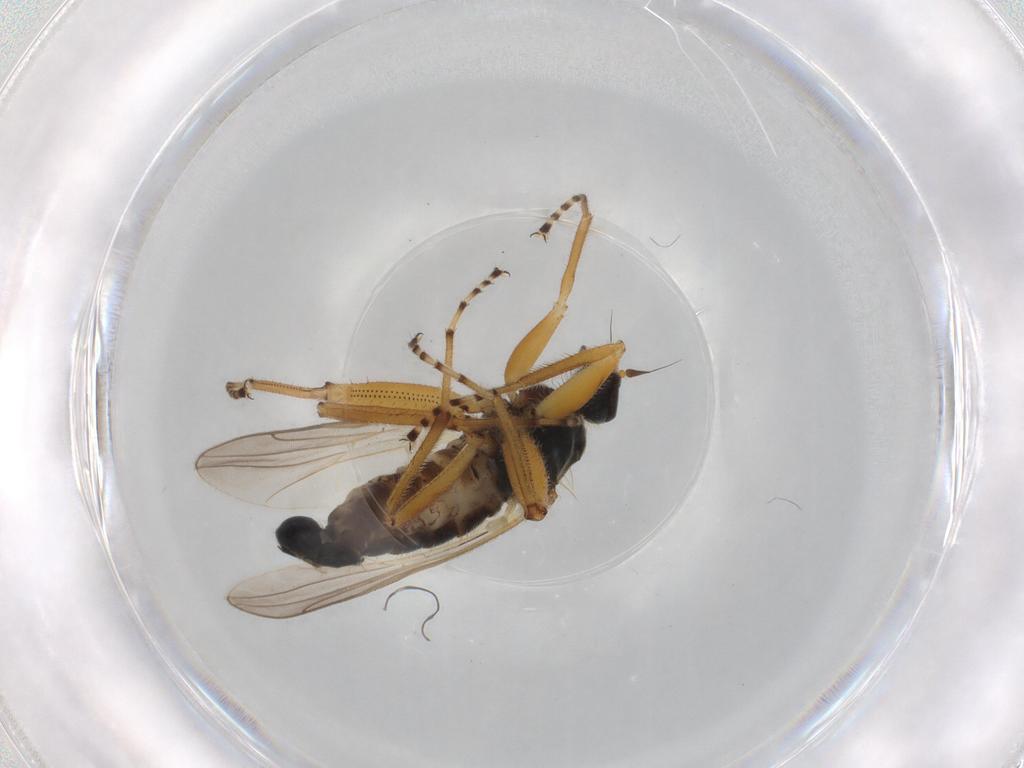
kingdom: Animalia
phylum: Arthropoda
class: Insecta
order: Diptera
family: Hybotidae
